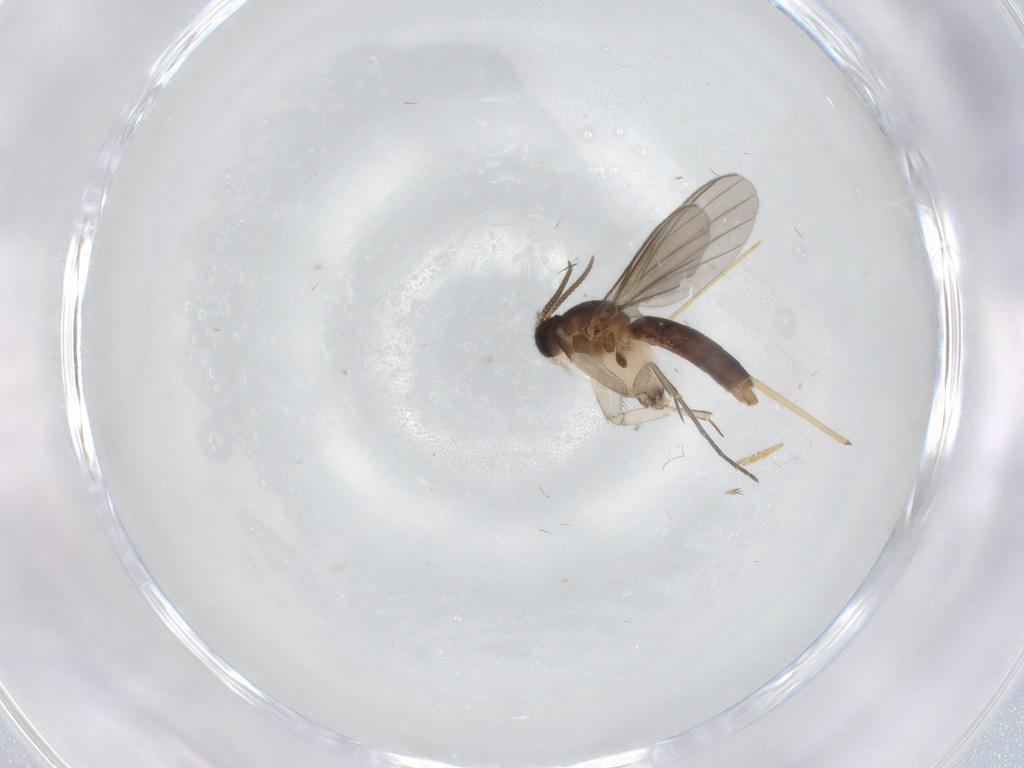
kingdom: Animalia
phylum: Arthropoda
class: Insecta
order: Diptera
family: Mycetophilidae
